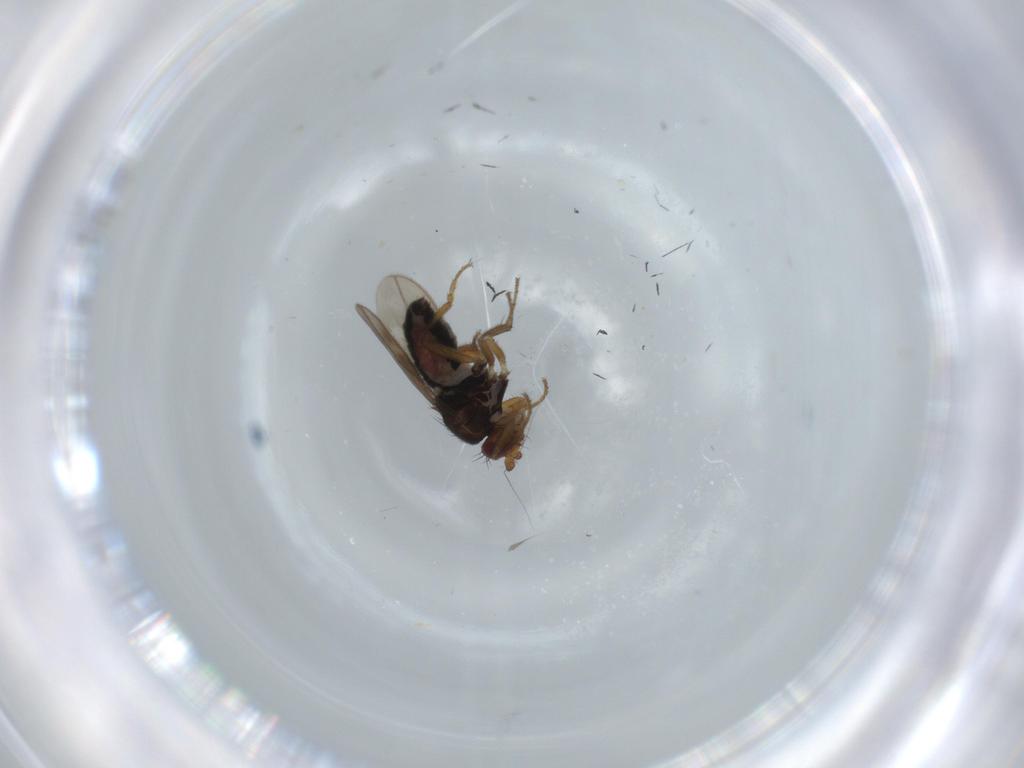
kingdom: Animalia
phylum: Arthropoda
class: Insecta
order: Diptera
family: Sphaeroceridae
